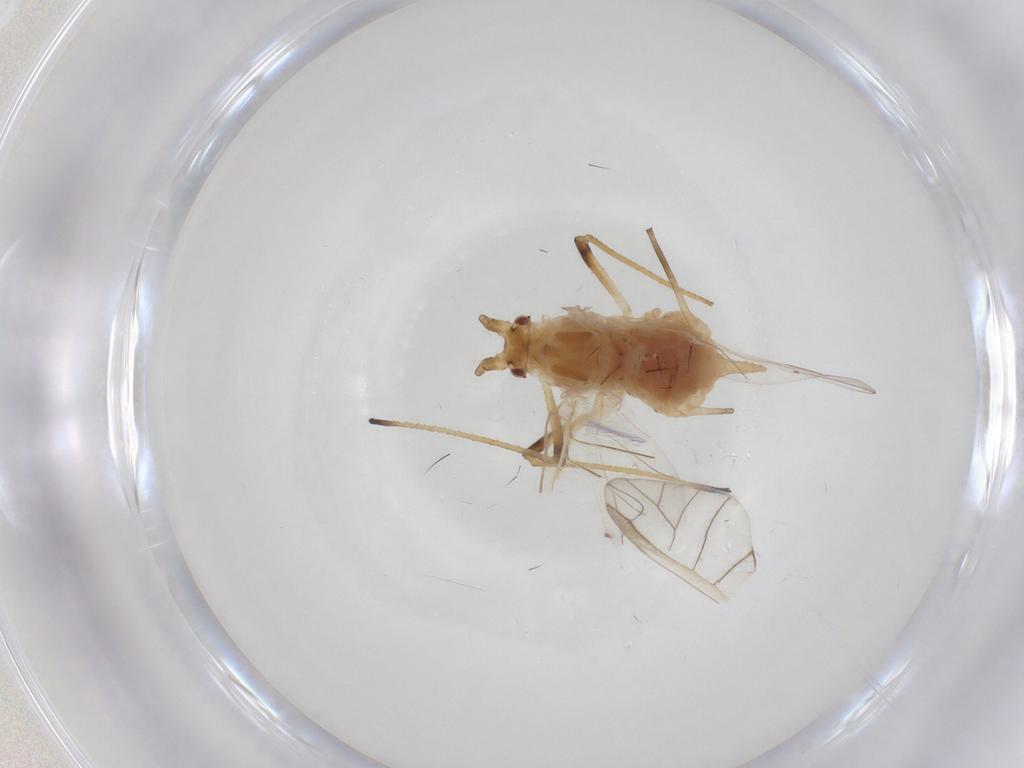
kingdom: Animalia
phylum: Arthropoda
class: Insecta
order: Hemiptera
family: Aphididae
